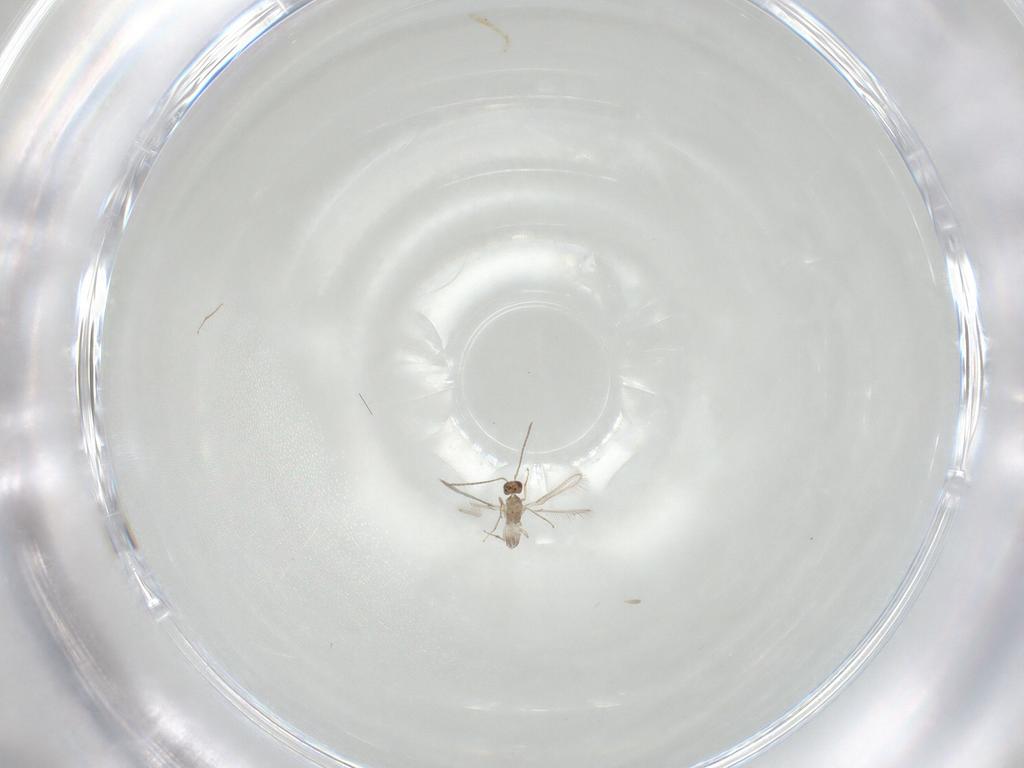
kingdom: Animalia
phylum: Arthropoda
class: Insecta
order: Hymenoptera
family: Mymaridae
